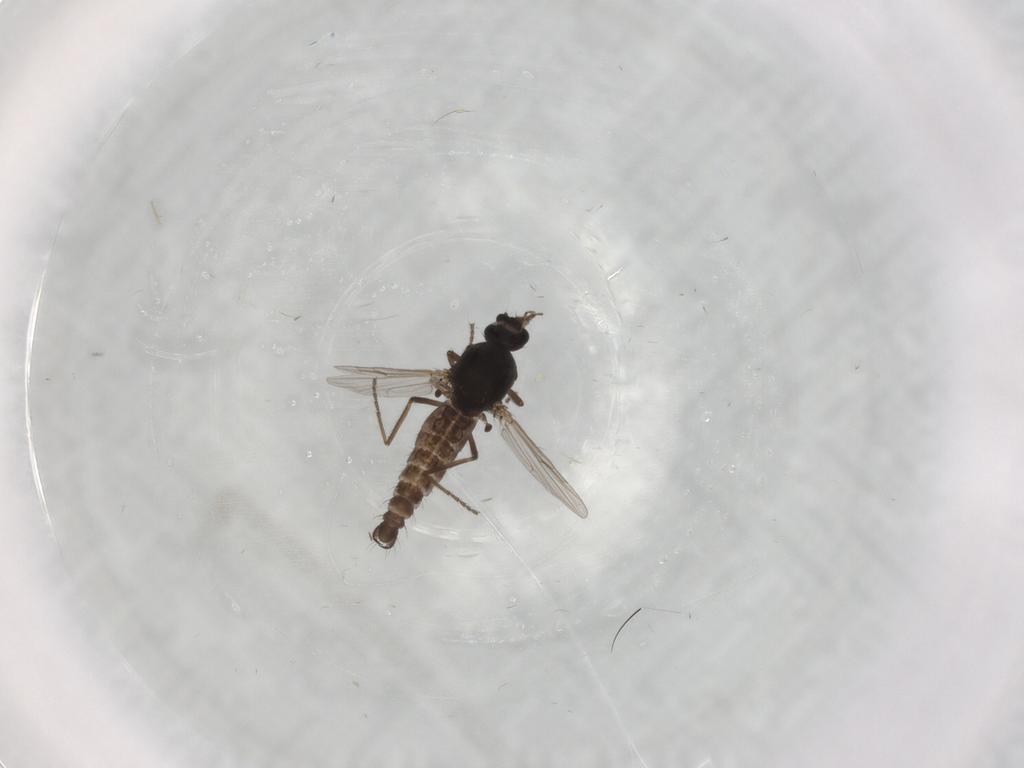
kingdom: Animalia
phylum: Arthropoda
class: Insecta
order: Diptera
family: Ceratopogonidae
